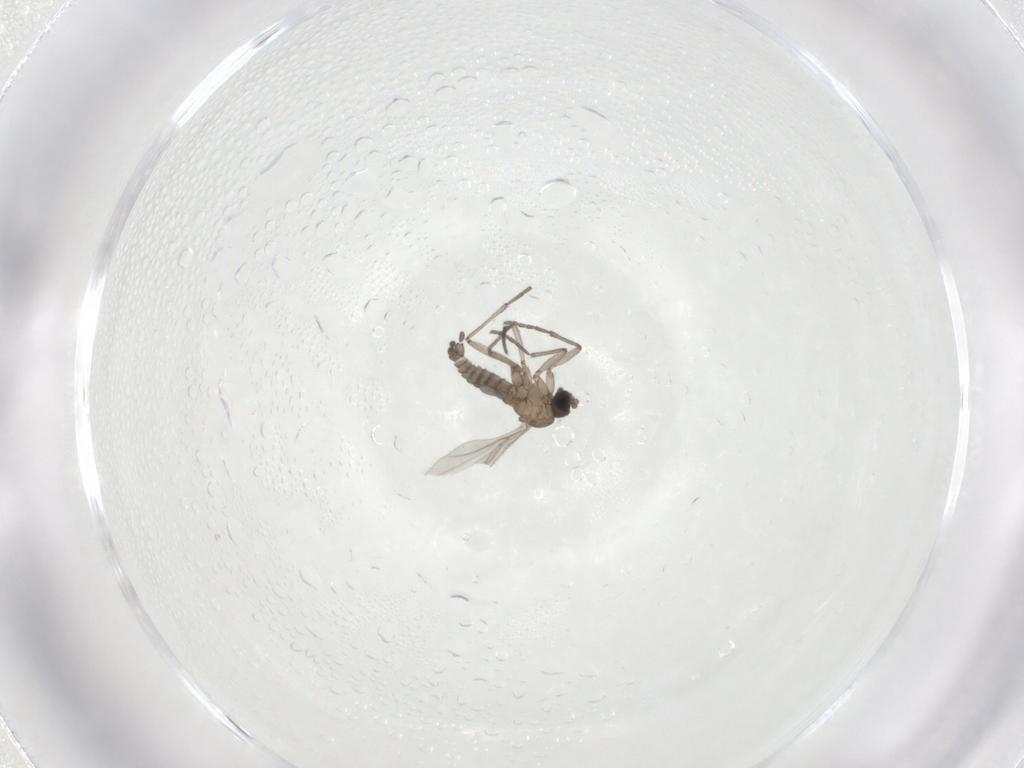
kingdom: Animalia
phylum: Arthropoda
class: Insecta
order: Diptera
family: Sciaridae
